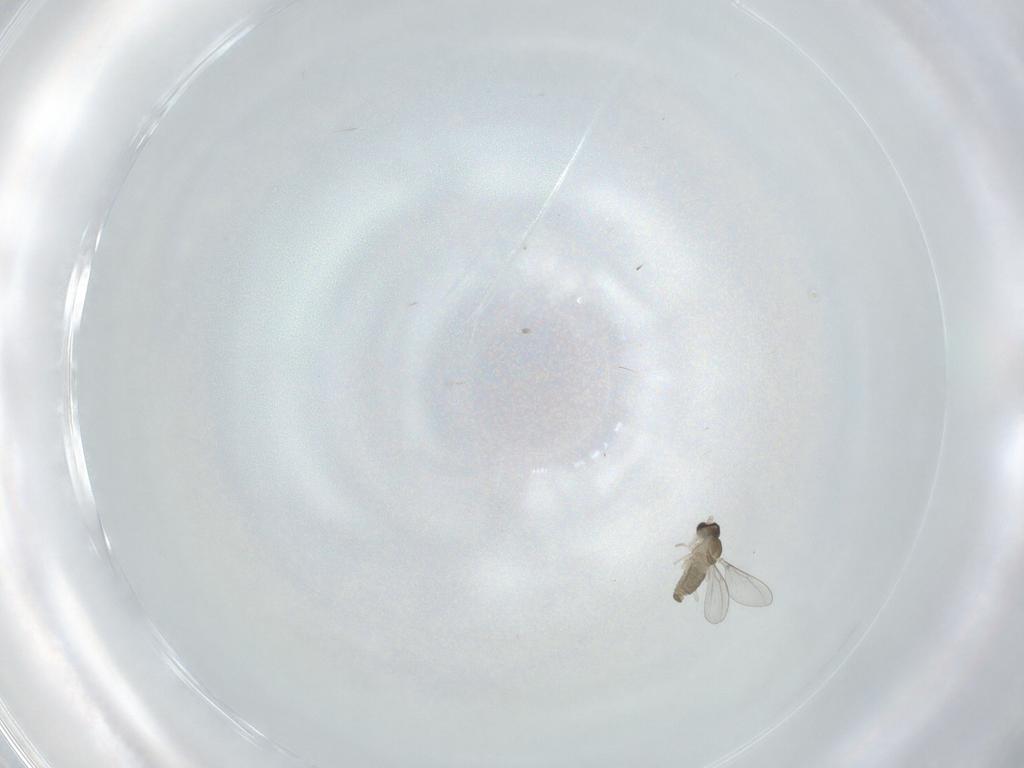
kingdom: Animalia
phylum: Arthropoda
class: Insecta
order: Diptera
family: Cecidomyiidae
